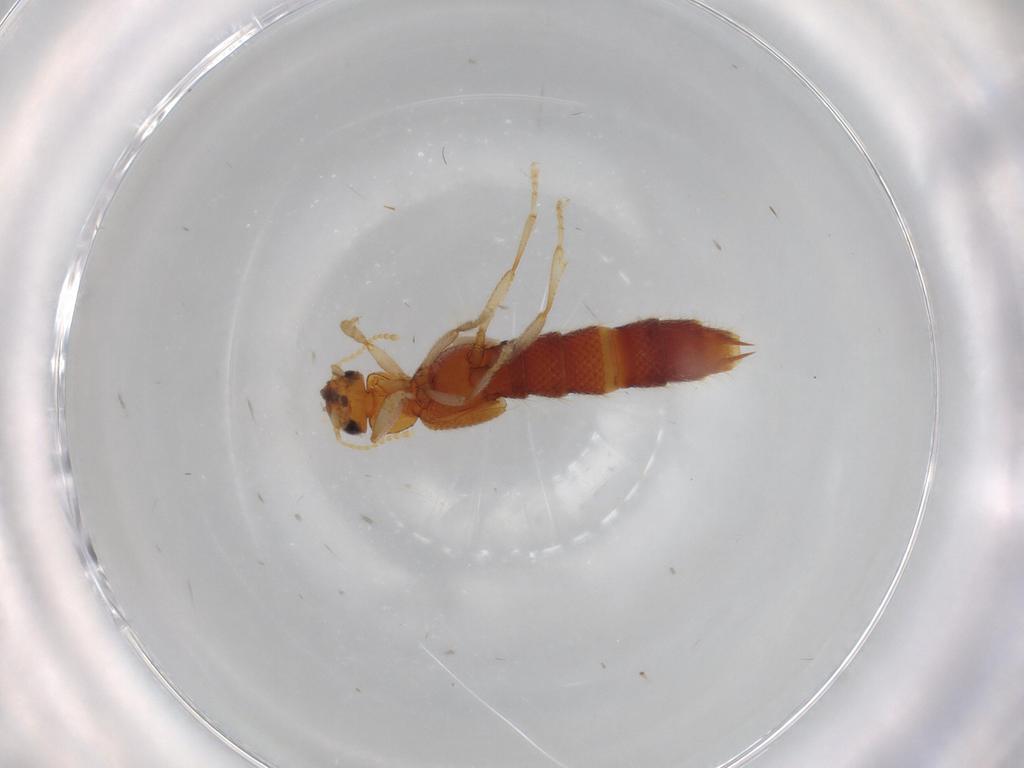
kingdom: Animalia
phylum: Arthropoda
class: Insecta
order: Coleoptera
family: Staphylinidae
